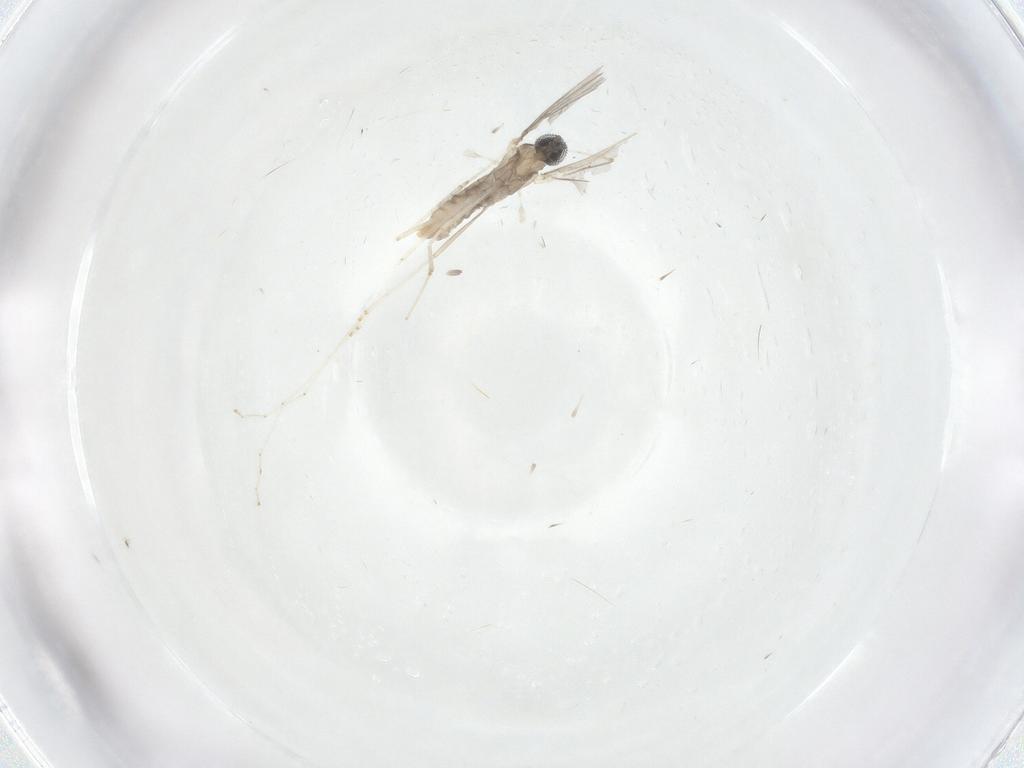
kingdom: Animalia
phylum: Arthropoda
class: Insecta
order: Diptera
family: Cecidomyiidae
